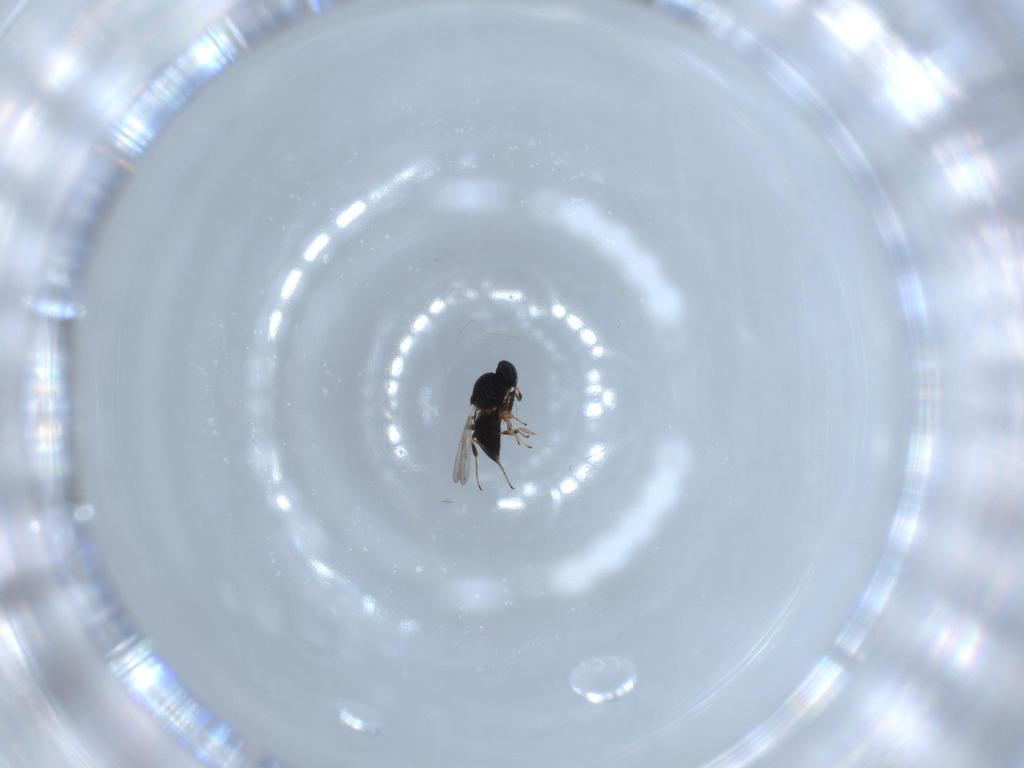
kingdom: Animalia
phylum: Arthropoda
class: Insecta
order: Hymenoptera
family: Platygastridae
